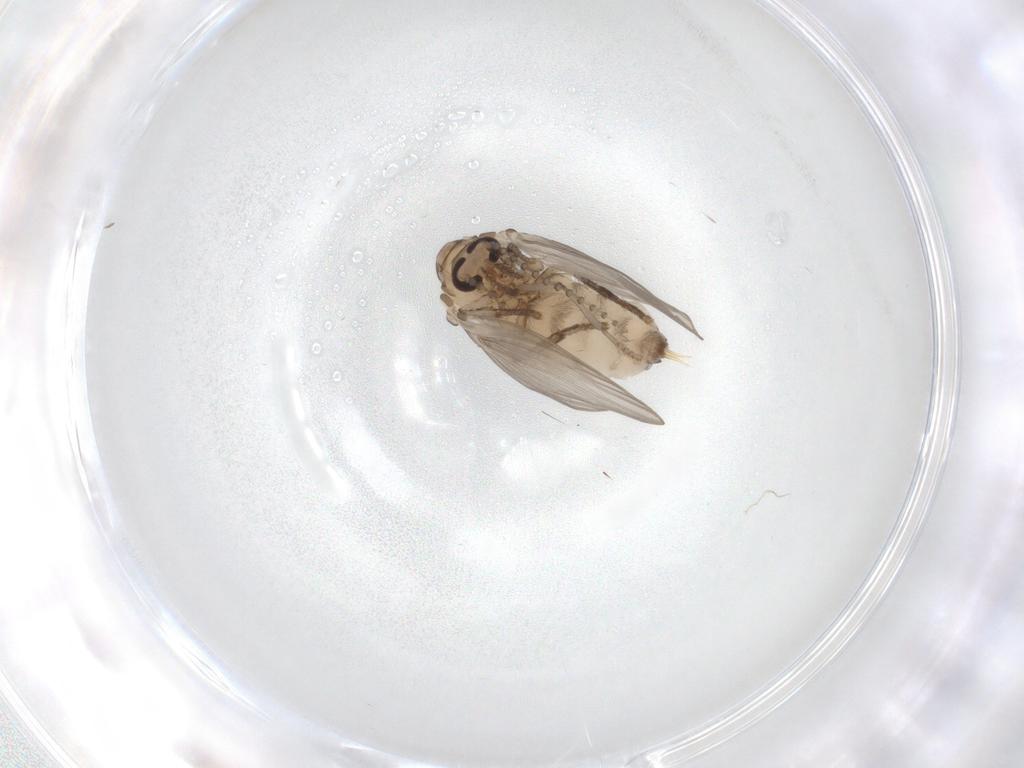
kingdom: Animalia
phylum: Arthropoda
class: Insecta
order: Diptera
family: Psychodidae
